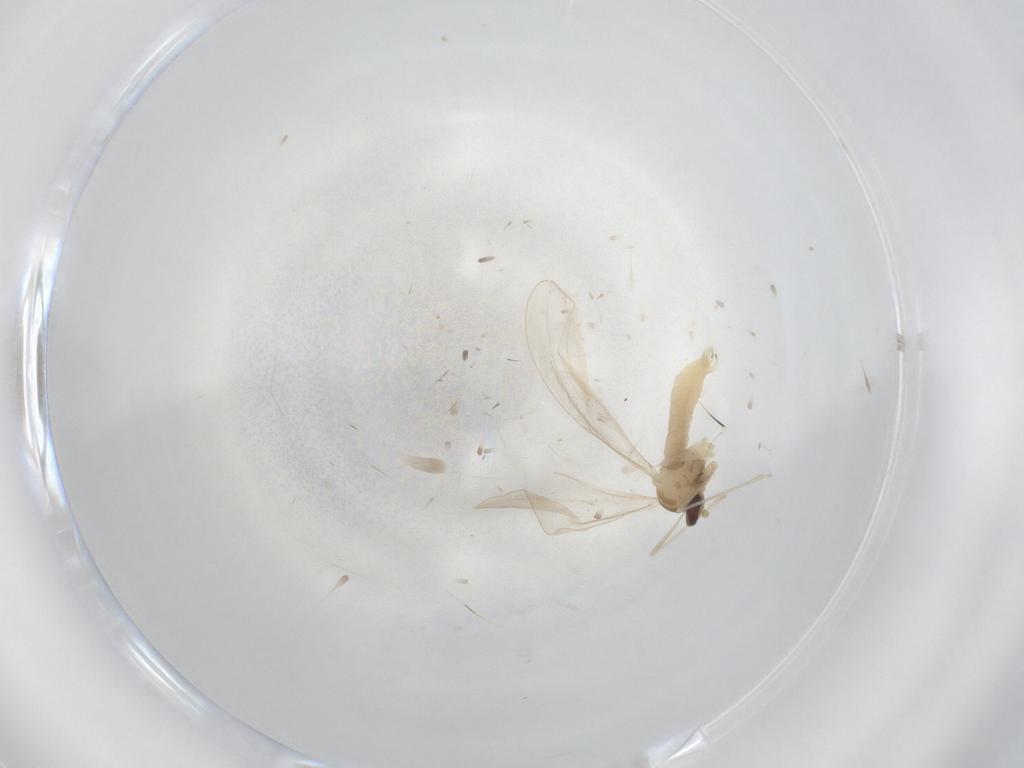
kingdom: Animalia
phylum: Arthropoda
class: Insecta
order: Diptera
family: Cecidomyiidae
